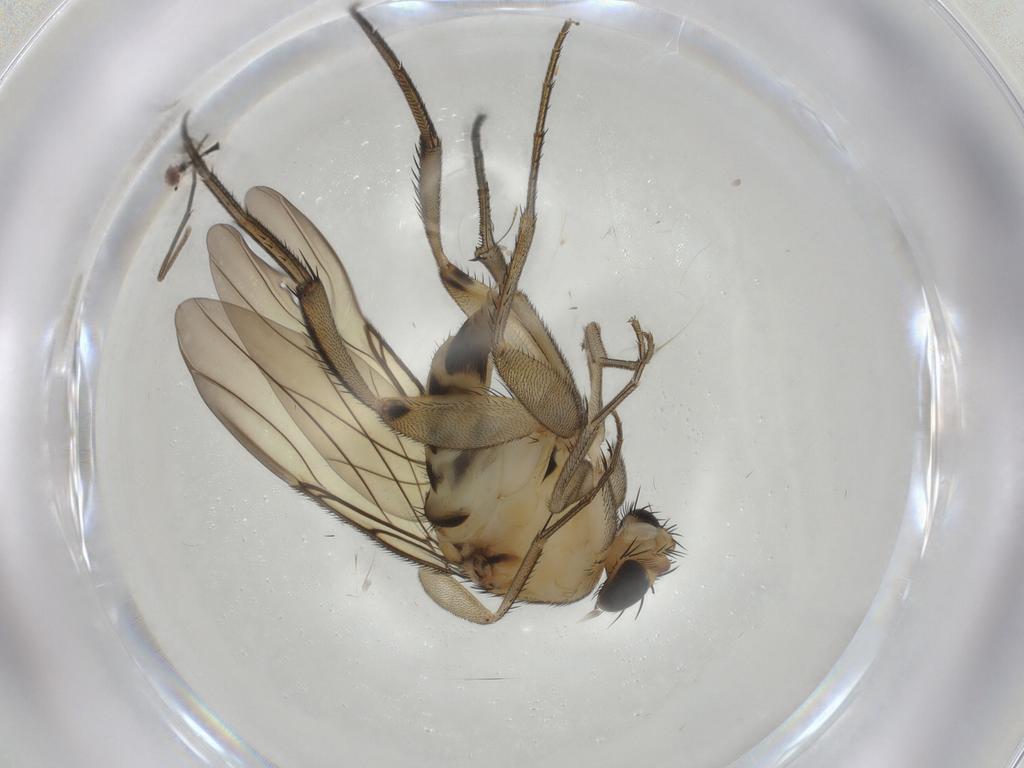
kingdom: Animalia
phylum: Arthropoda
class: Insecta
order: Diptera
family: Phoridae
